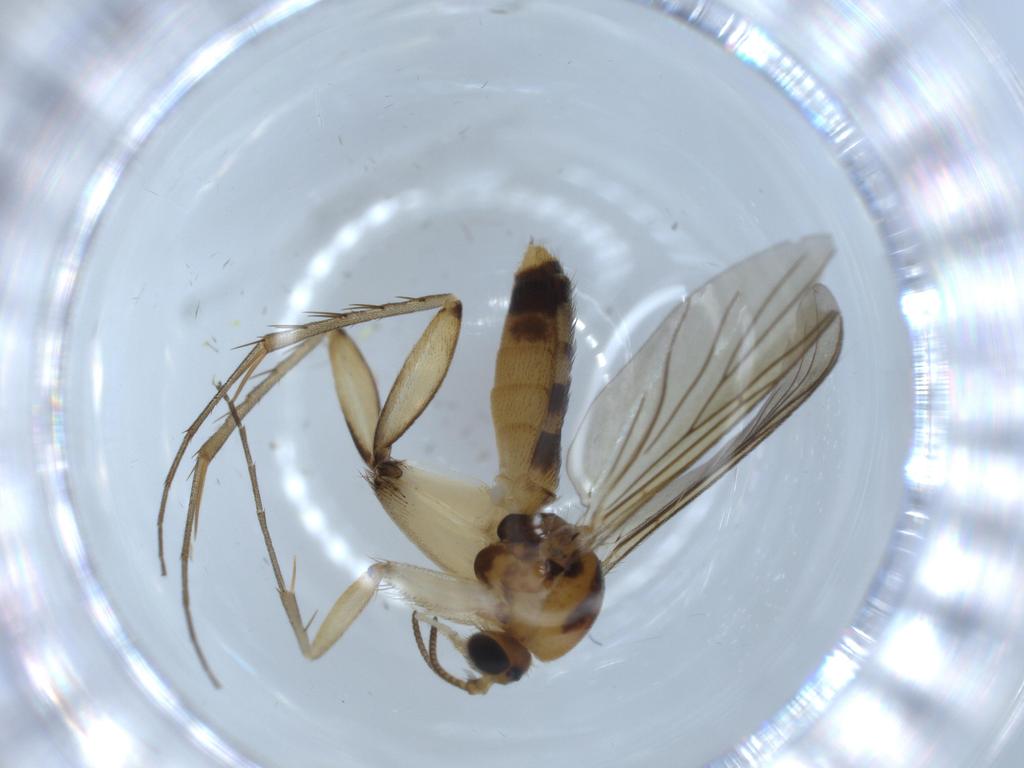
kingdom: Animalia
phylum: Arthropoda
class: Insecta
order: Diptera
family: Mycetophilidae
